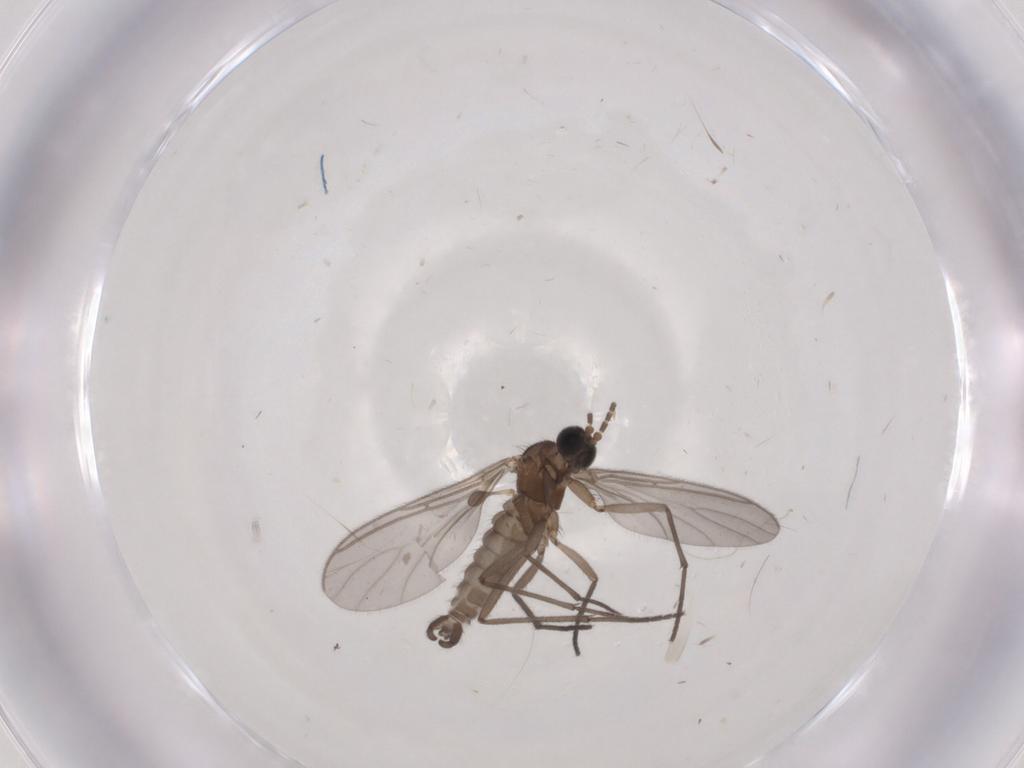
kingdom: Animalia
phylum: Arthropoda
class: Insecta
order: Diptera
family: Sciaridae
